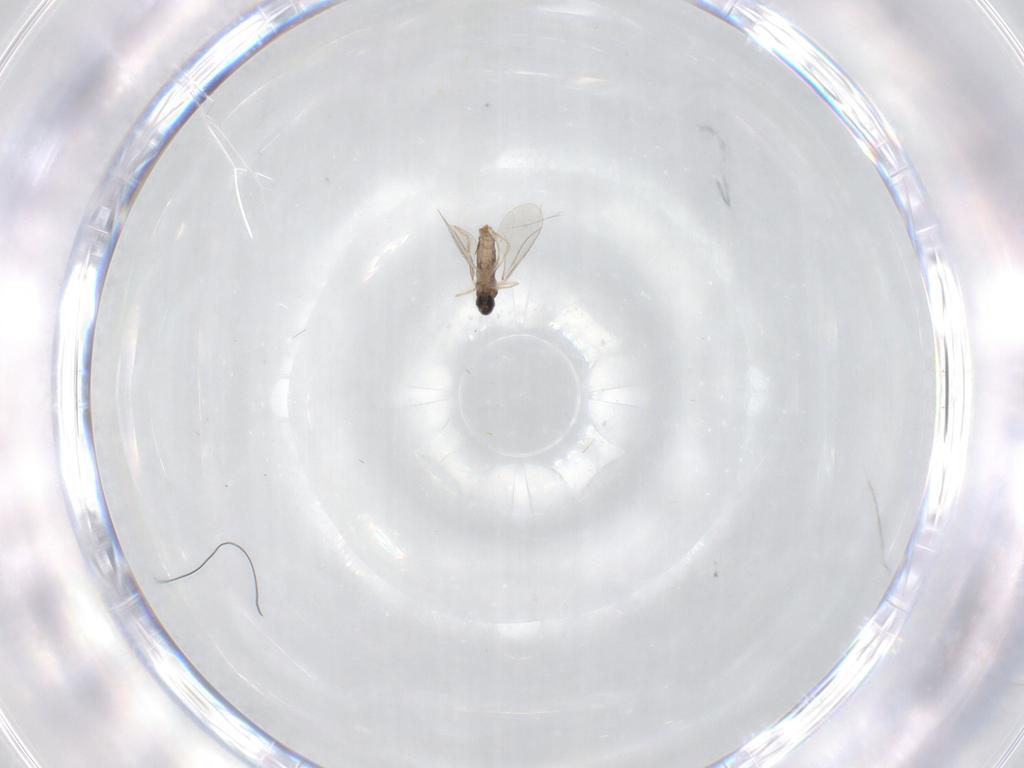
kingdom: Animalia
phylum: Arthropoda
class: Insecta
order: Diptera
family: Cecidomyiidae
